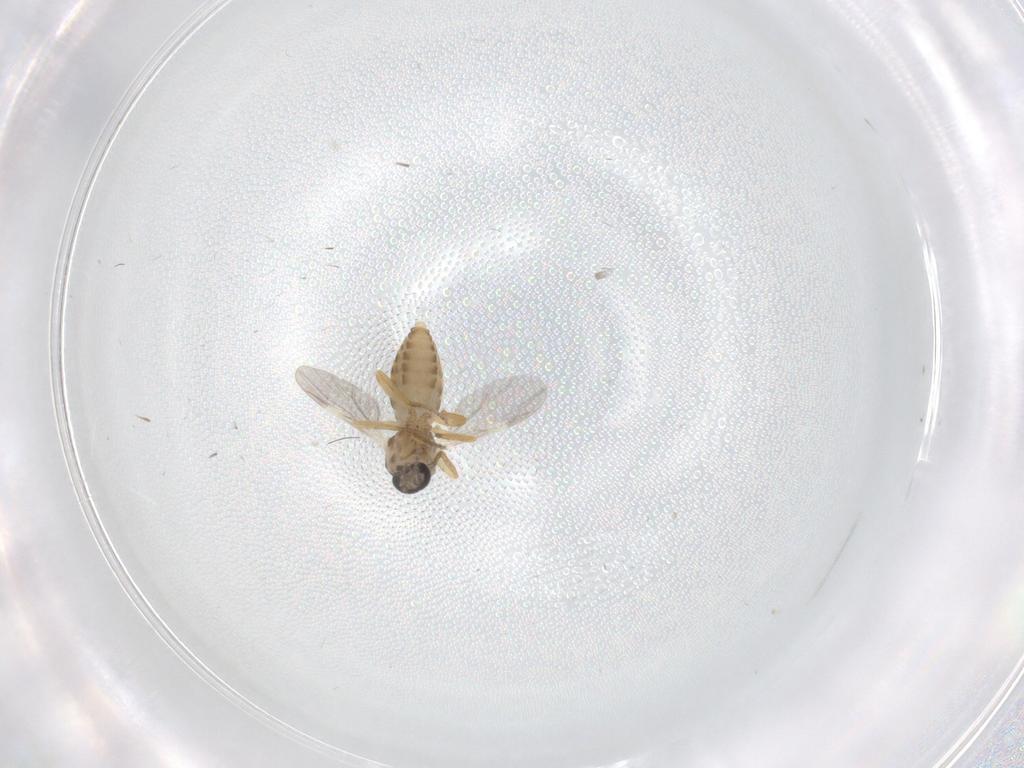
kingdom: Animalia
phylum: Arthropoda
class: Insecta
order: Diptera
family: Ceratopogonidae
